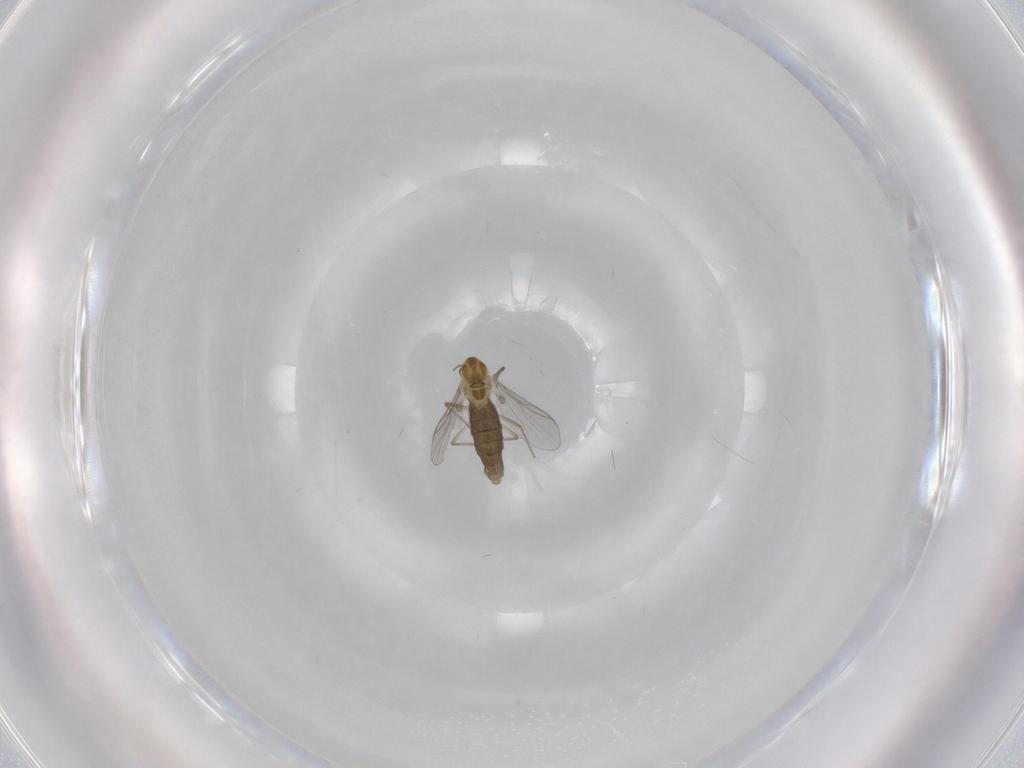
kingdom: Animalia
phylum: Arthropoda
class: Insecta
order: Diptera
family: Chironomidae
